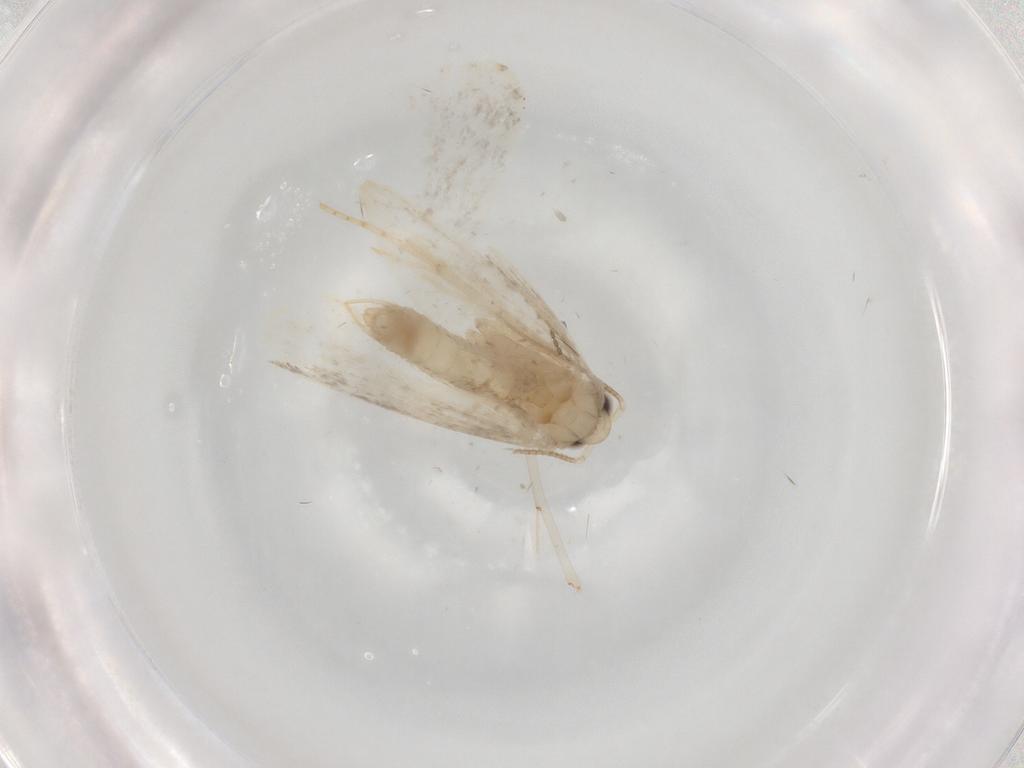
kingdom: Animalia
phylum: Arthropoda
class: Insecta
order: Lepidoptera
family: Psychidae
